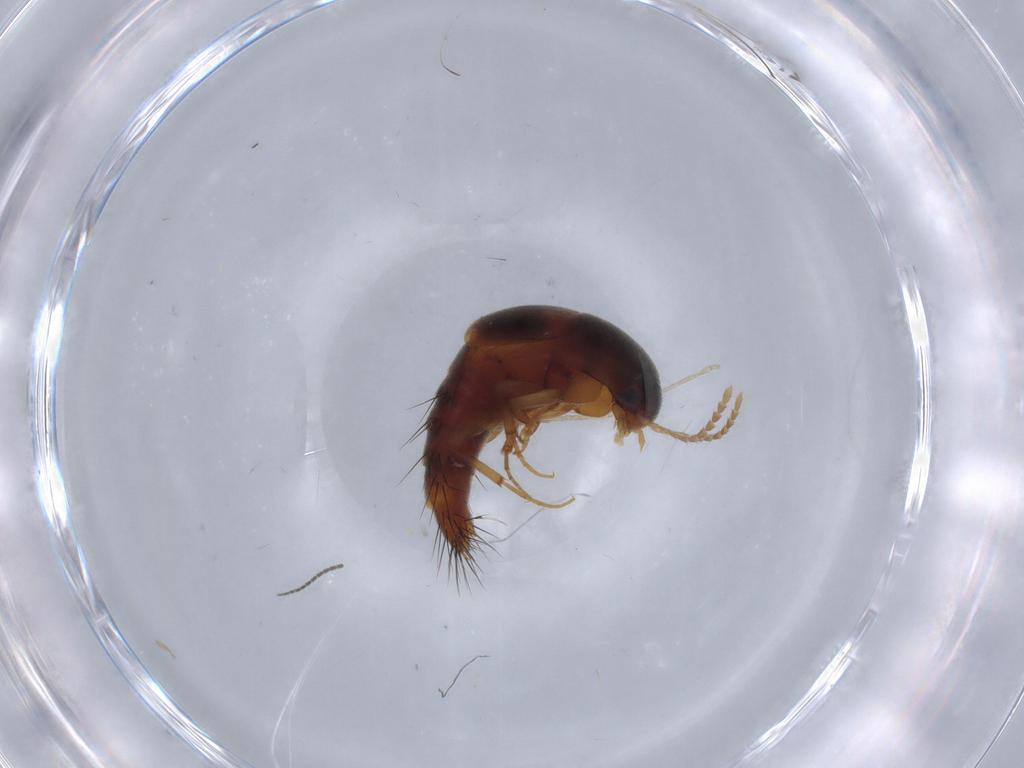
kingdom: Animalia
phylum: Arthropoda
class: Insecta
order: Coleoptera
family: Staphylinidae
